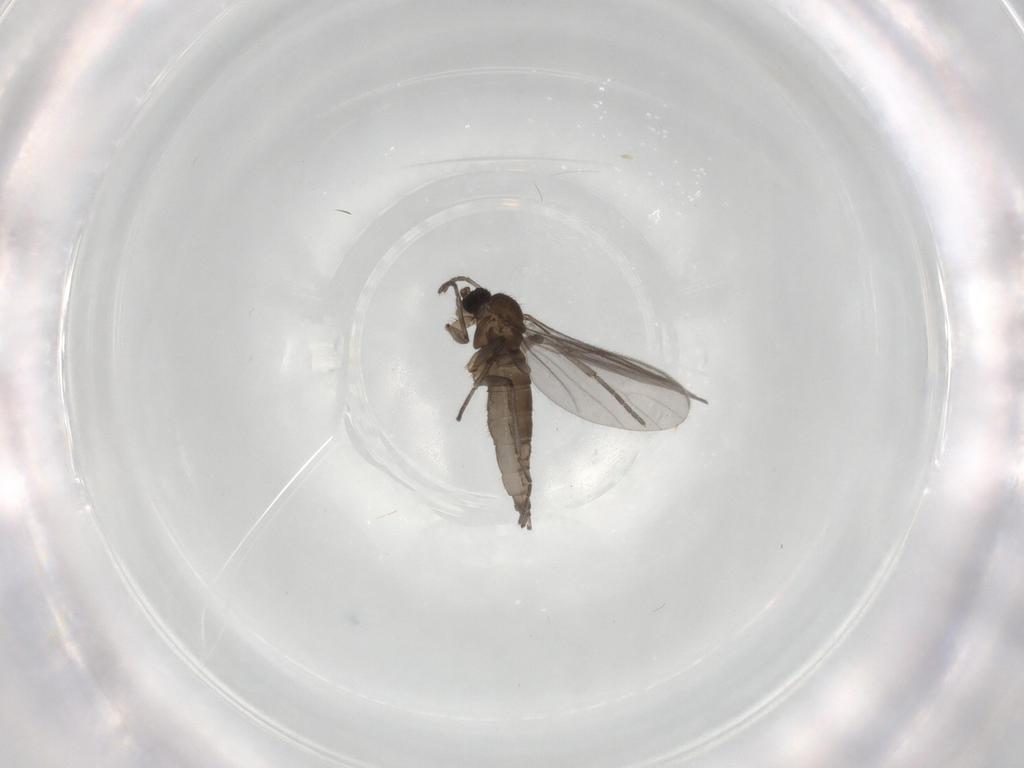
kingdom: Animalia
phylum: Arthropoda
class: Insecta
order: Diptera
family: Sciaridae
